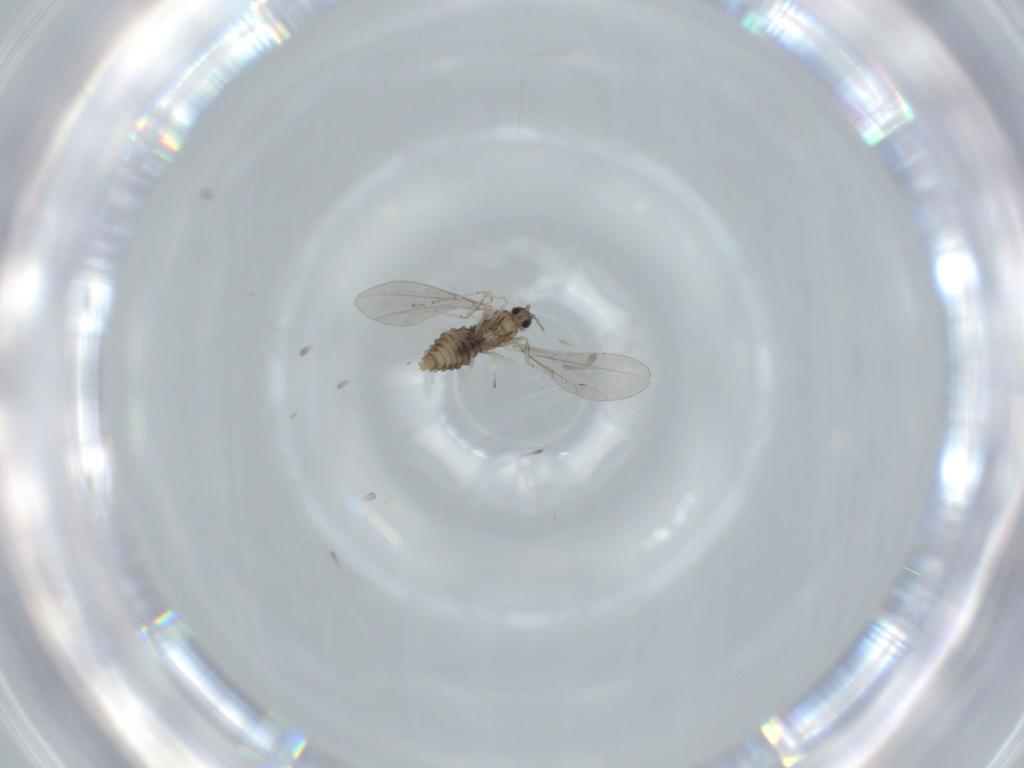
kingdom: Animalia
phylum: Arthropoda
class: Insecta
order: Diptera
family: Cecidomyiidae
